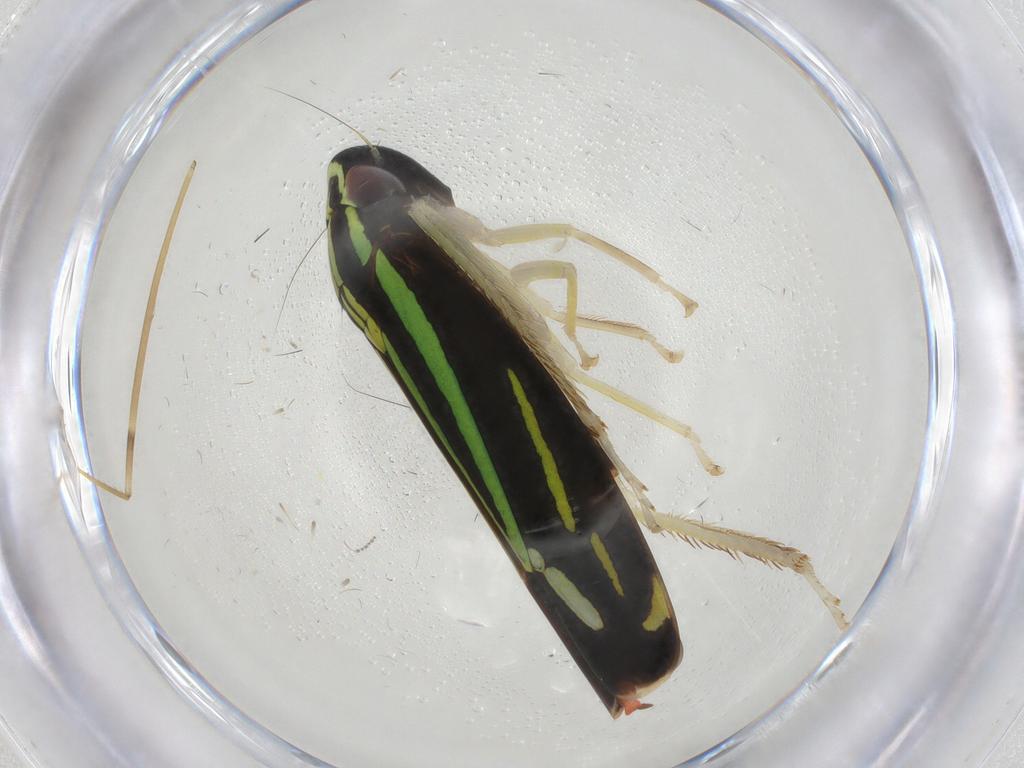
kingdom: Animalia
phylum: Arthropoda
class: Insecta
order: Hemiptera
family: Cicadellidae
